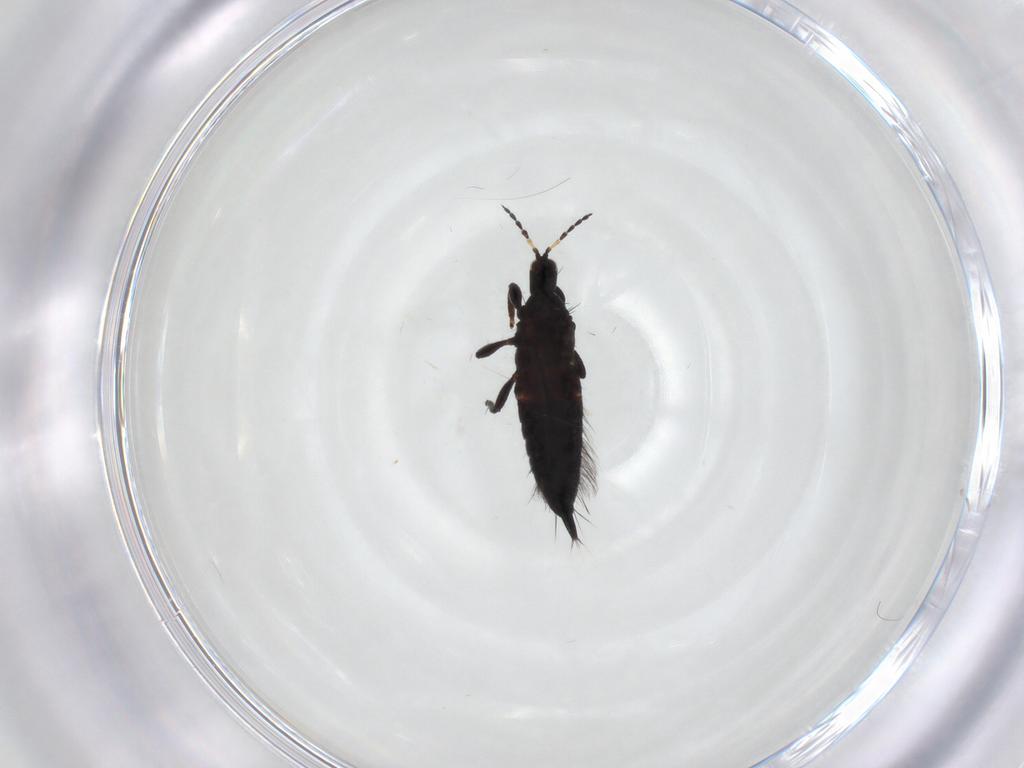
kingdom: Animalia
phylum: Arthropoda
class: Insecta
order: Thysanoptera
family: Phlaeothripidae
